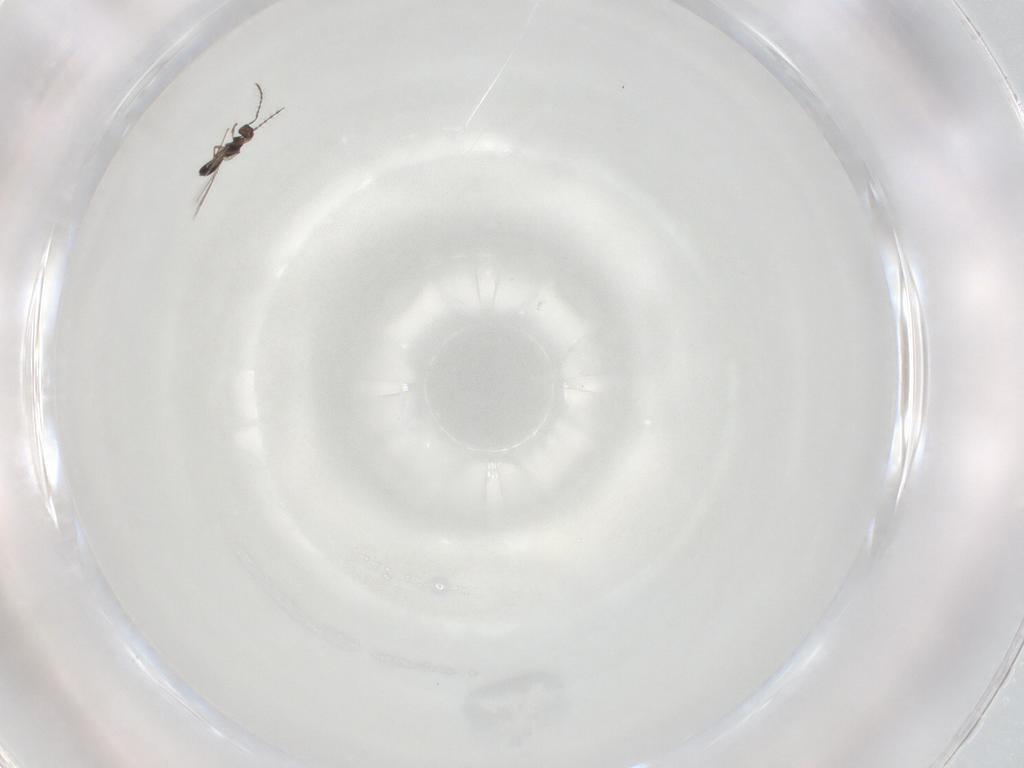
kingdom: Animalia
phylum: Arthropoda
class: Insecta
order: Hymenoptera
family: Pteromalidae
